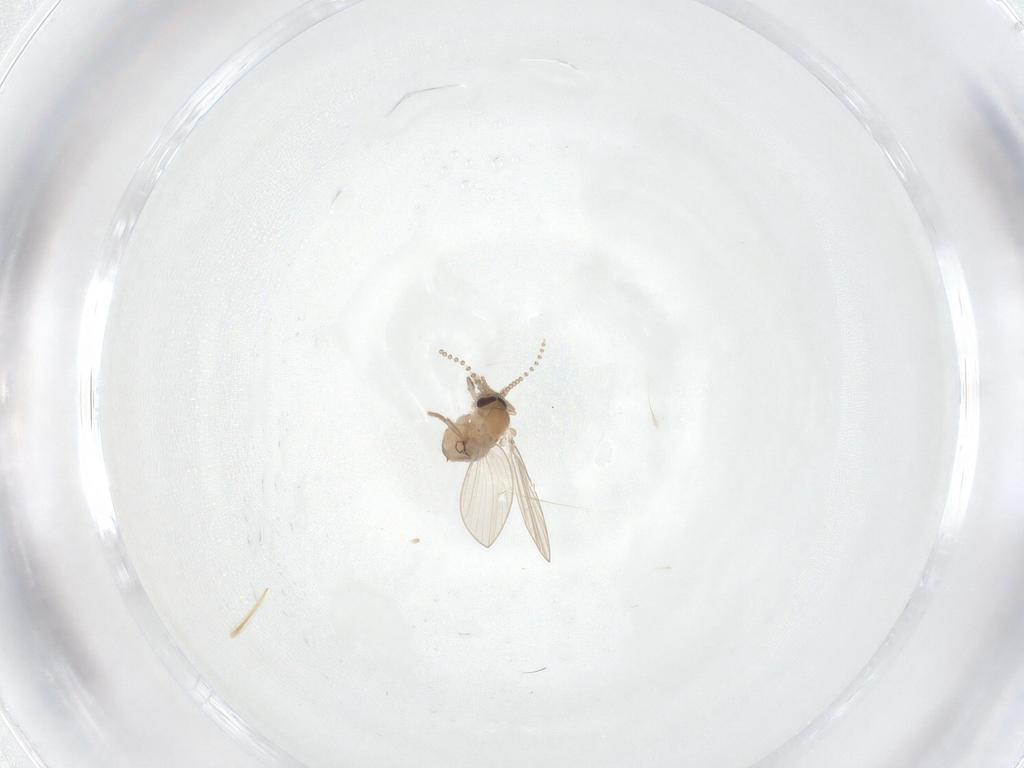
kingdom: Animalia
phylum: Arthropoda
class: Insecta
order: Diptera
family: Psychodidae
